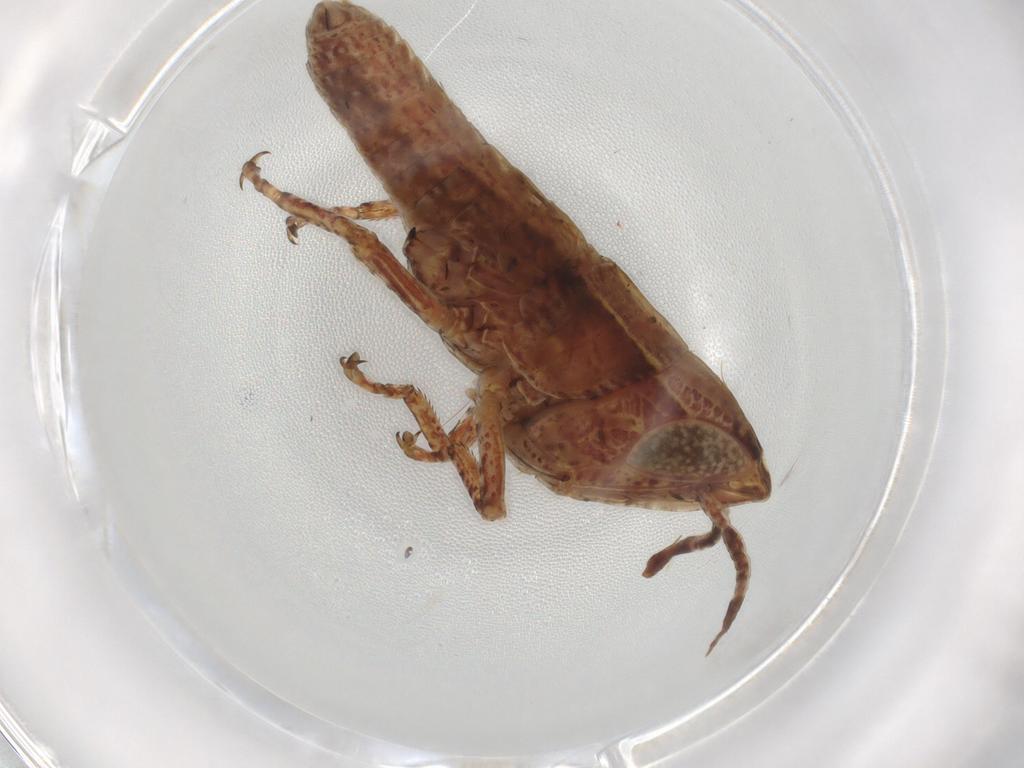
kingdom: Animalia
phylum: Arthropoda
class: Insecta
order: Orthoptera
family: Acrididae
